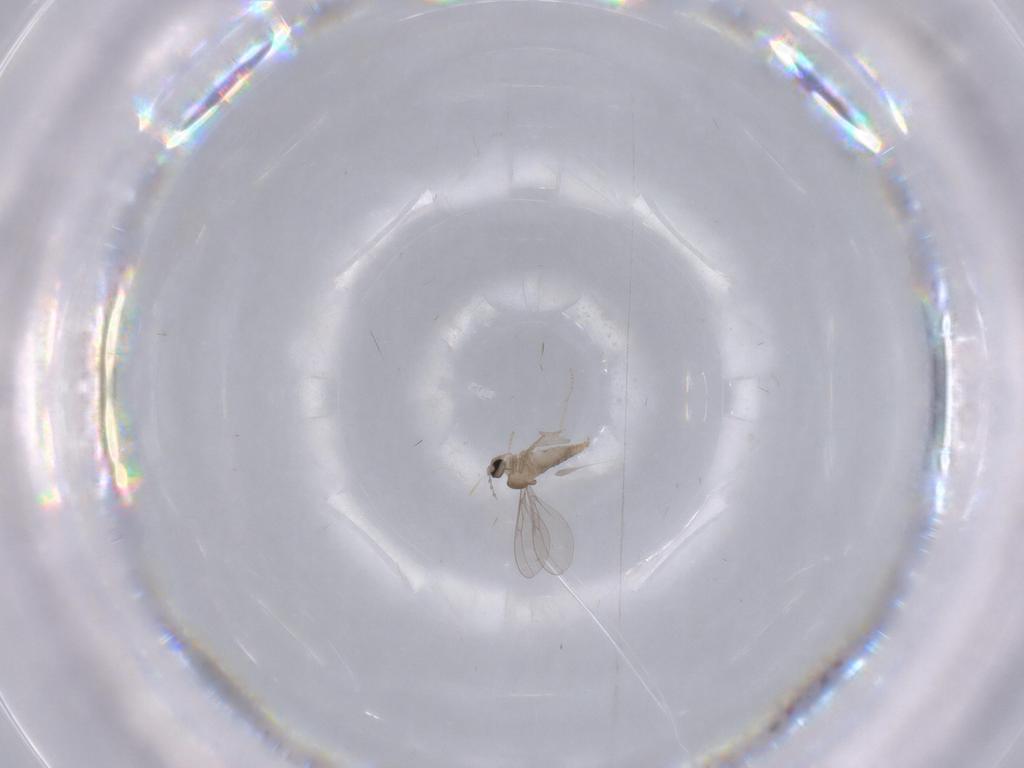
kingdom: Animalia
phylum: Arthropoda
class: Insecta
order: Diptera
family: Cecidomyiidae
